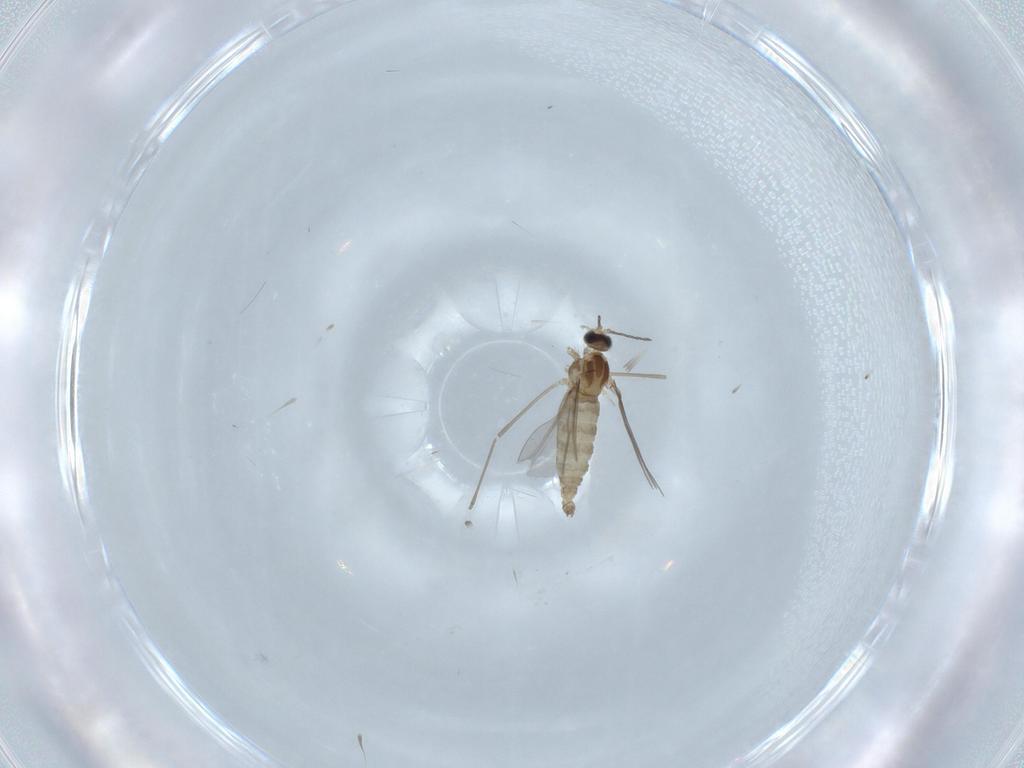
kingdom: Animalia
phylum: Arthropoda
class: Insecta
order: Diptera
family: Cecidomyiidae
